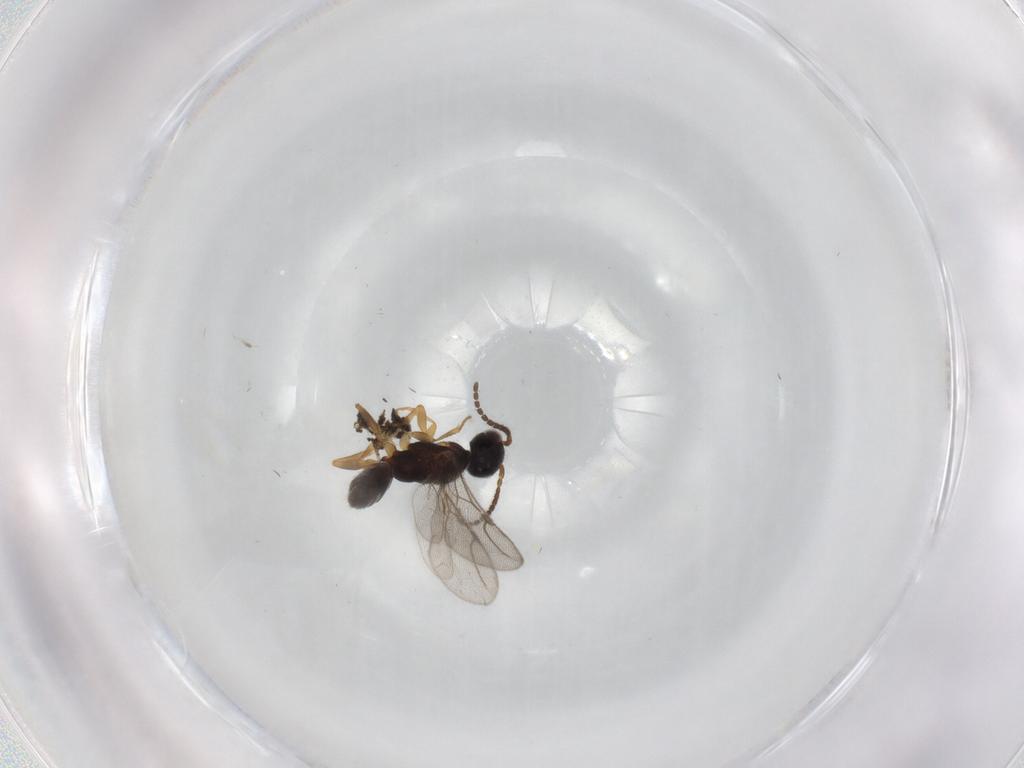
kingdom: Animalia
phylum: Arthropoda
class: Insecta
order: Hymenoptera
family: Bethylidae
